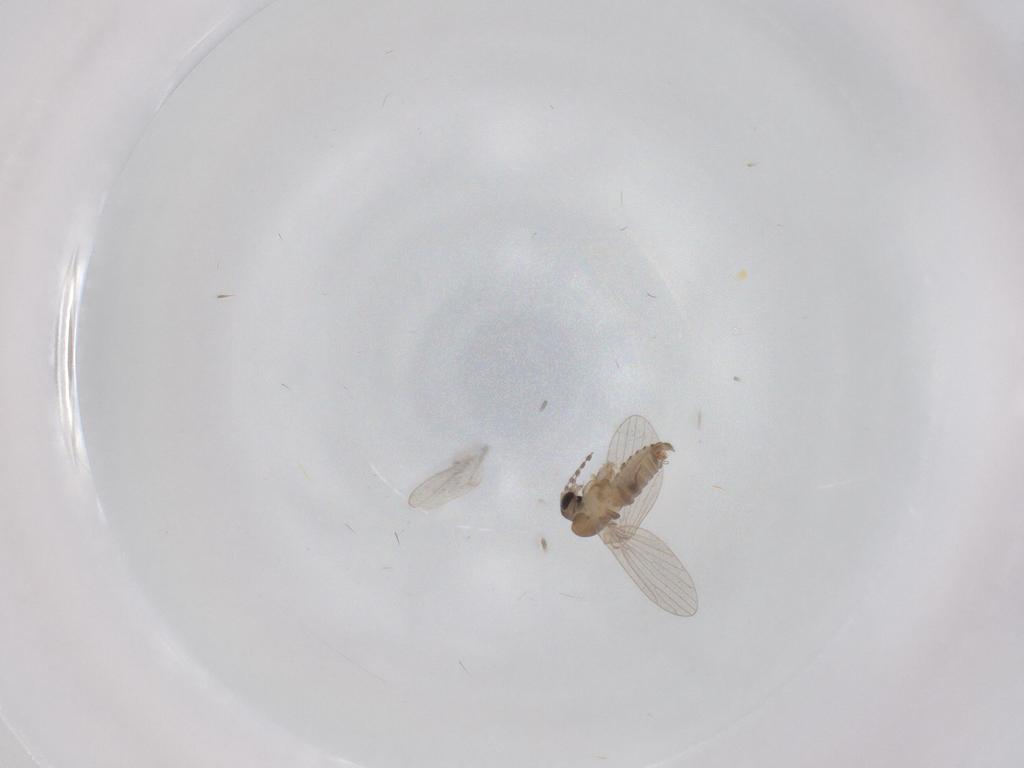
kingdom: Animalia
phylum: Arthropoda
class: Insecta
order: Diptera
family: Psychodidae
